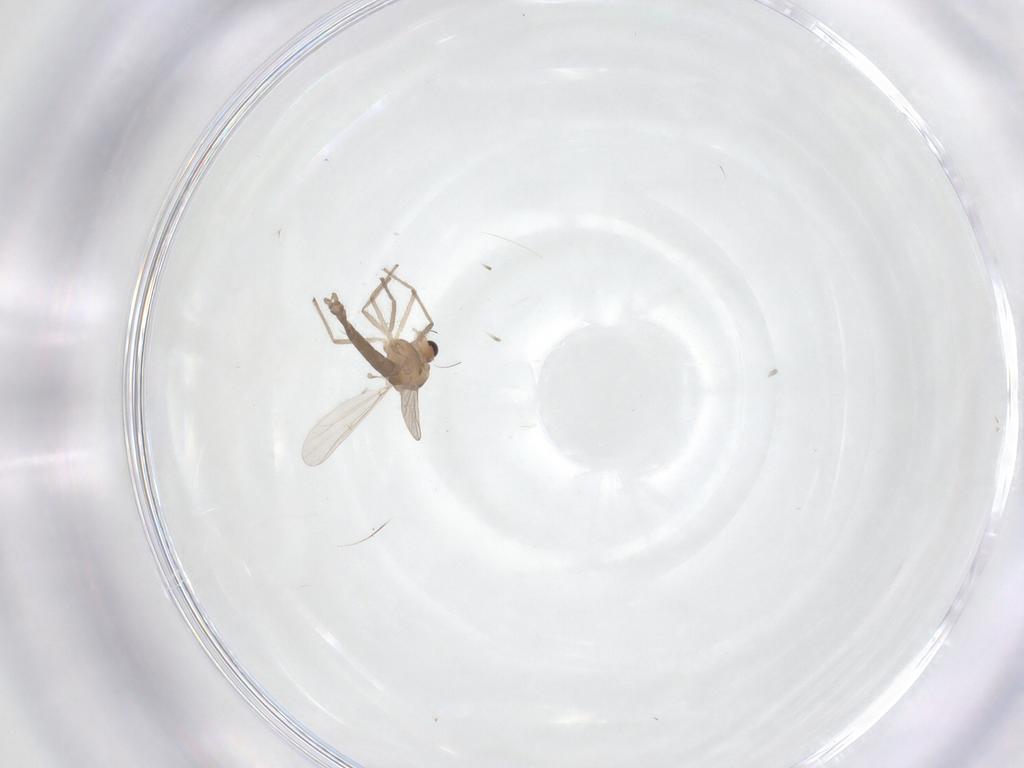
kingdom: Animalia
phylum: Arthropoda
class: Insecta
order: Diptera
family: Chironomidae
